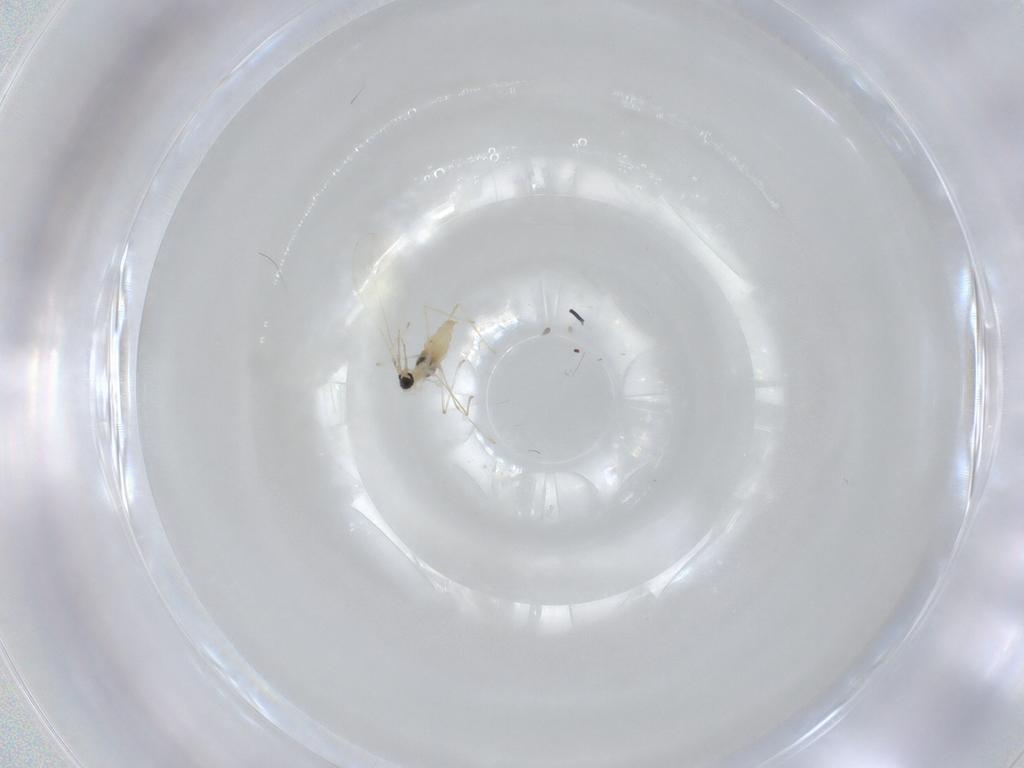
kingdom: Animalia
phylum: Arthropoda
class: Insecta
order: Diptera
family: Cecidomyiidae
